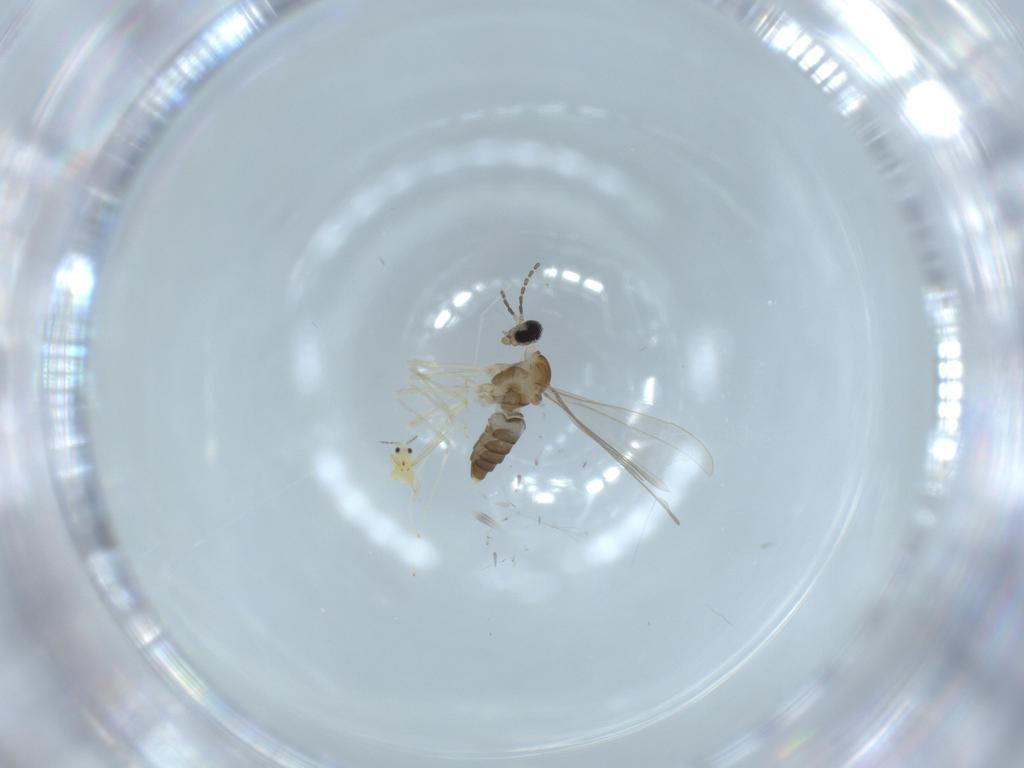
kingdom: Animalia
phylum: Arthropoda
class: Insecta
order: Diptera
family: Cecidomyiidae
